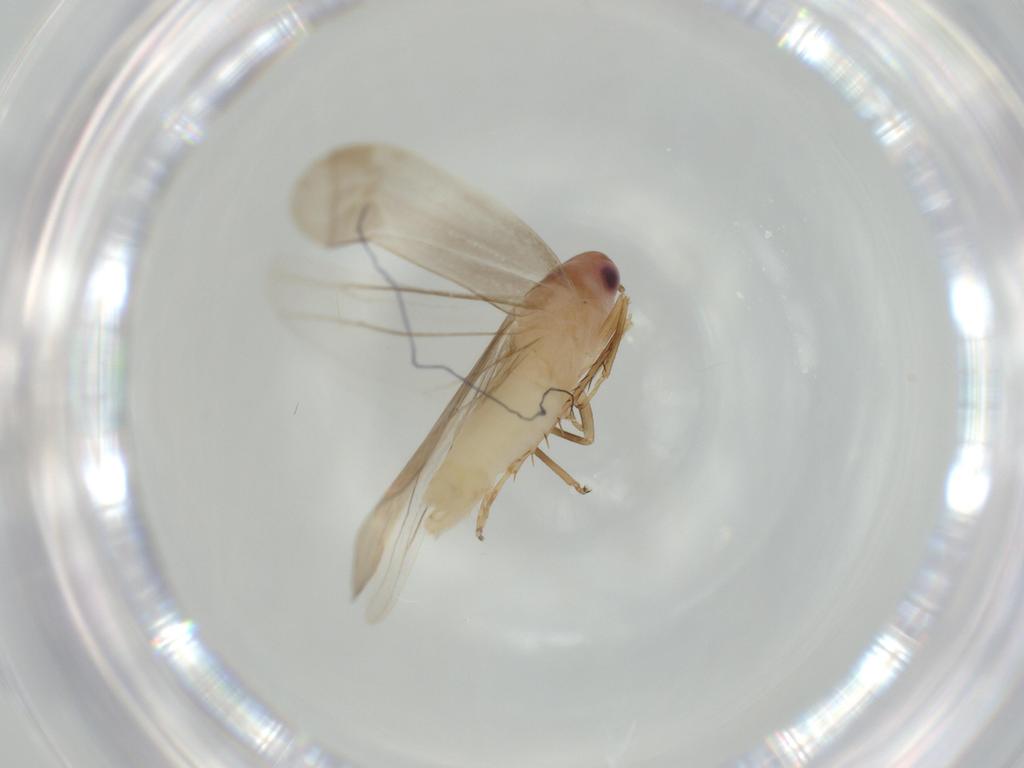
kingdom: Animalia
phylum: Arthropoda
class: Insecta
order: Hemiptera
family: Cicadellidae
